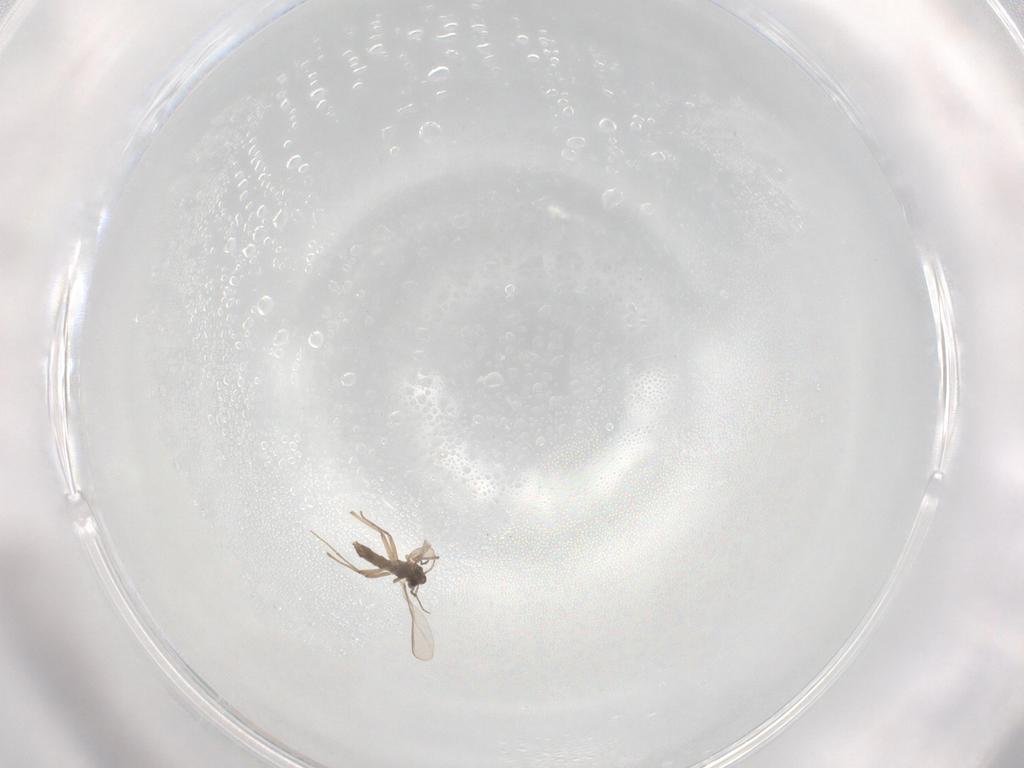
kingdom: Animalia
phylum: Arthropoda
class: Insecta
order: Diptera
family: Chironomidae
